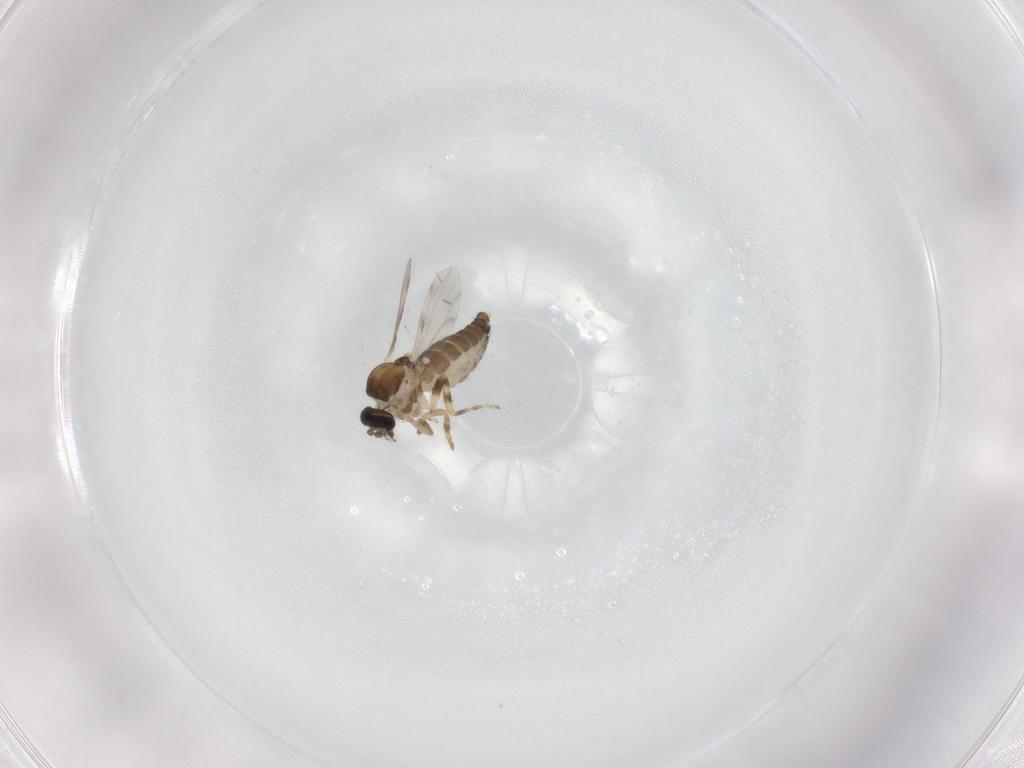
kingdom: Animalia
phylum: Arthropoda
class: Insecta
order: Diptera
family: Ceratopogonidae
